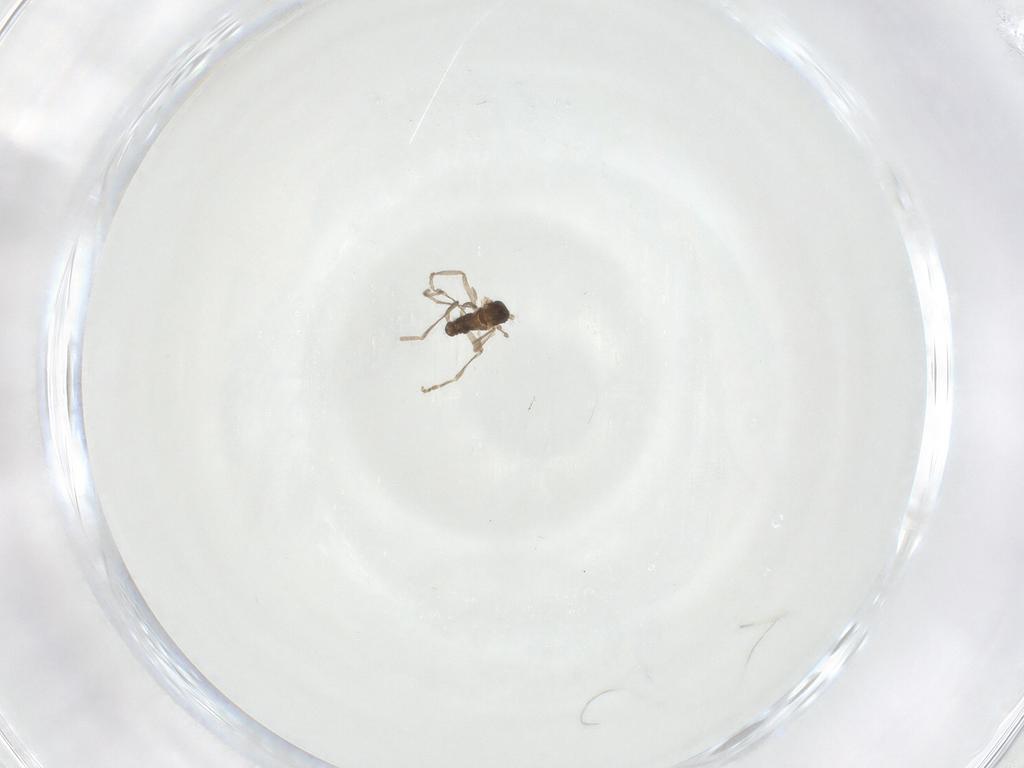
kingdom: Animalia
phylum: Arthropoda
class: Insecta
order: Diptera
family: Cecidomyiidae
